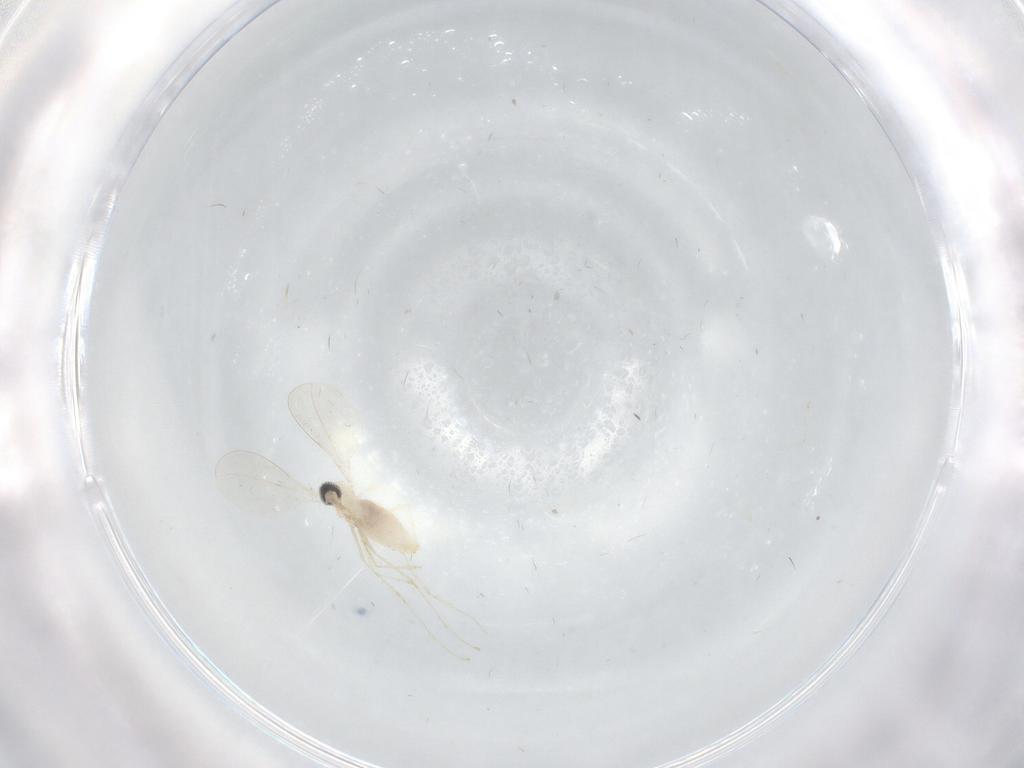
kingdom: Animalia
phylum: Arthropoda
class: Insecta
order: Diptera
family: Cecidomyiidae
